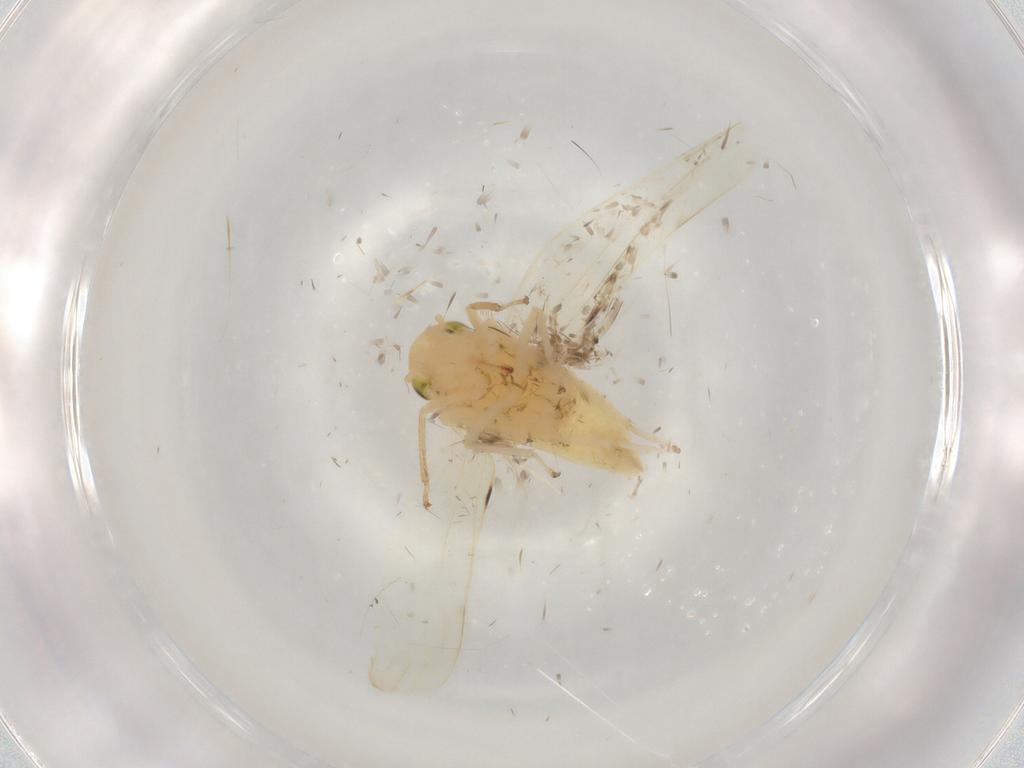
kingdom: Animalia
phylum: Arthropoda
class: Insecta
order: Hemiptera
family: Cicadellidae
